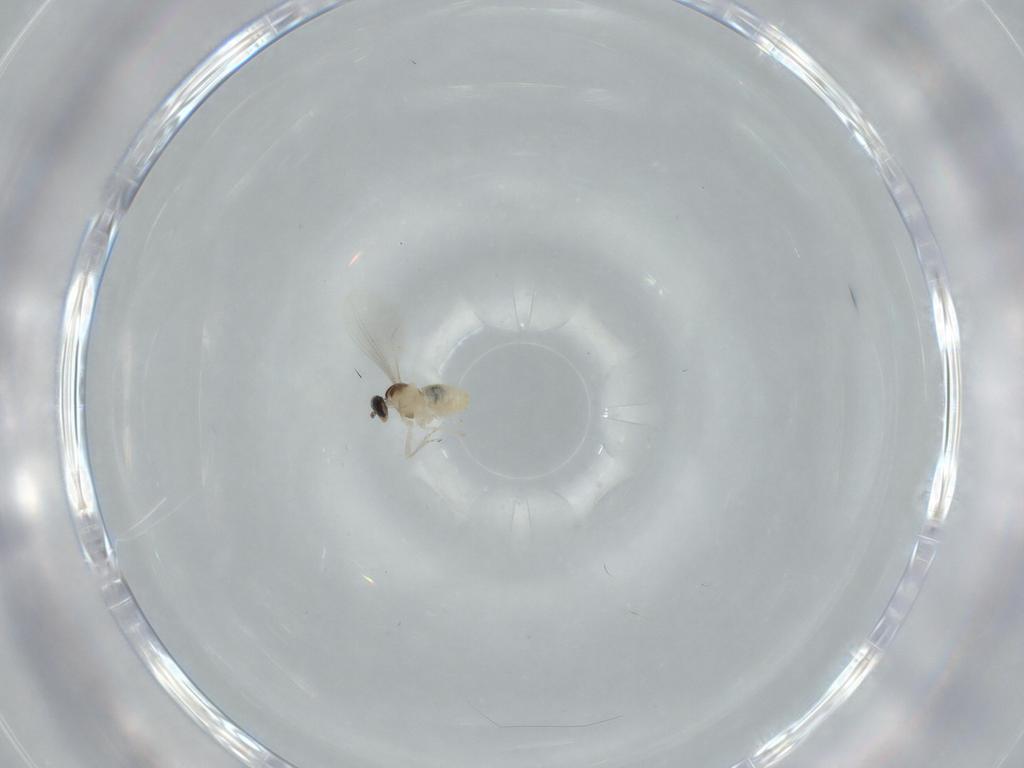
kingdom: Animalia
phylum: Arthropoda
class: Insecta
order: Diptera
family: Cecidomyiidae
